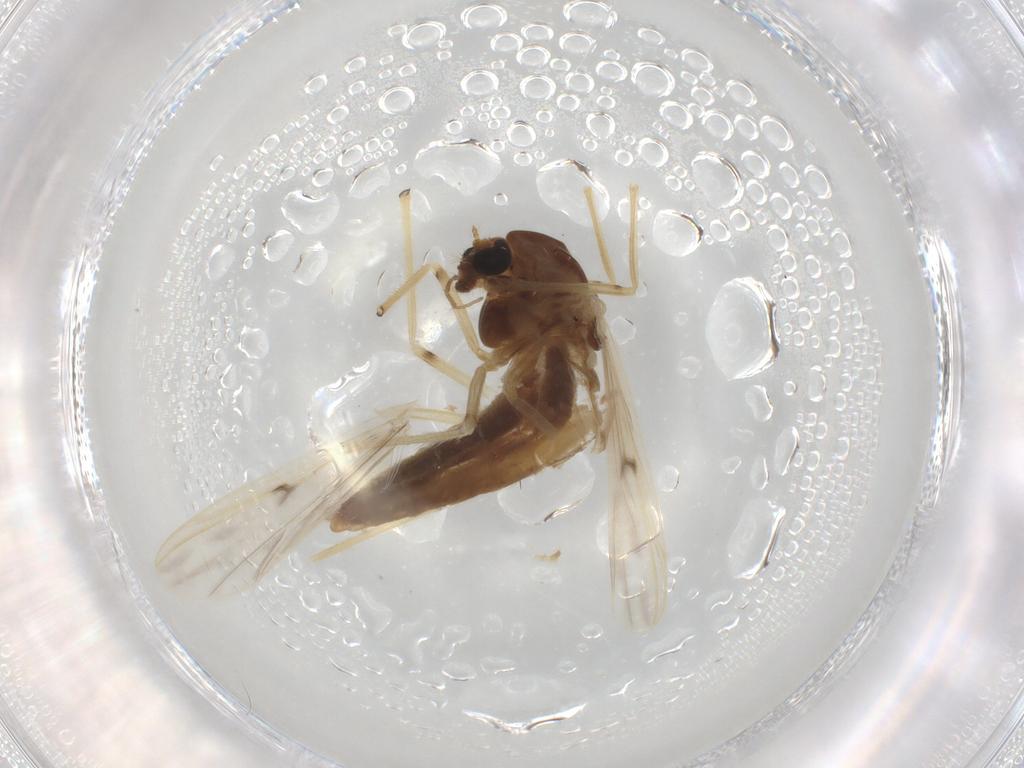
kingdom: Animalia
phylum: Arthropoda
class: Insecta
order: Diptera
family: Chironomidae
